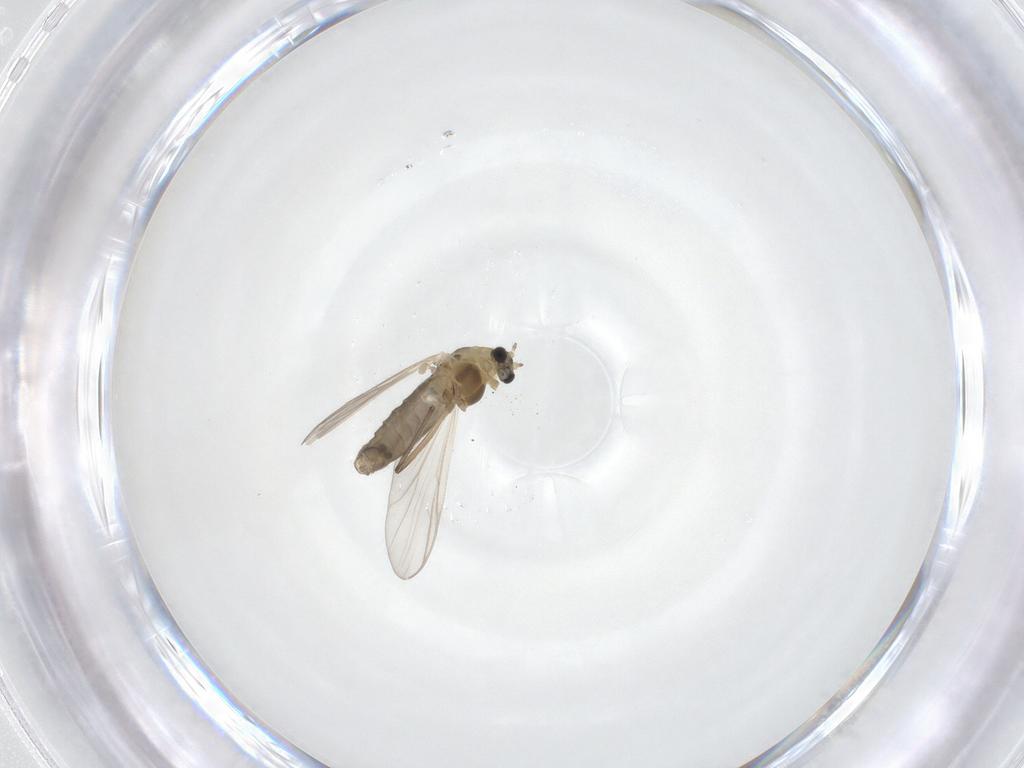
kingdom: Animalia
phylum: Arthropoda
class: Insecta
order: Diptera
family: Chironomidae
